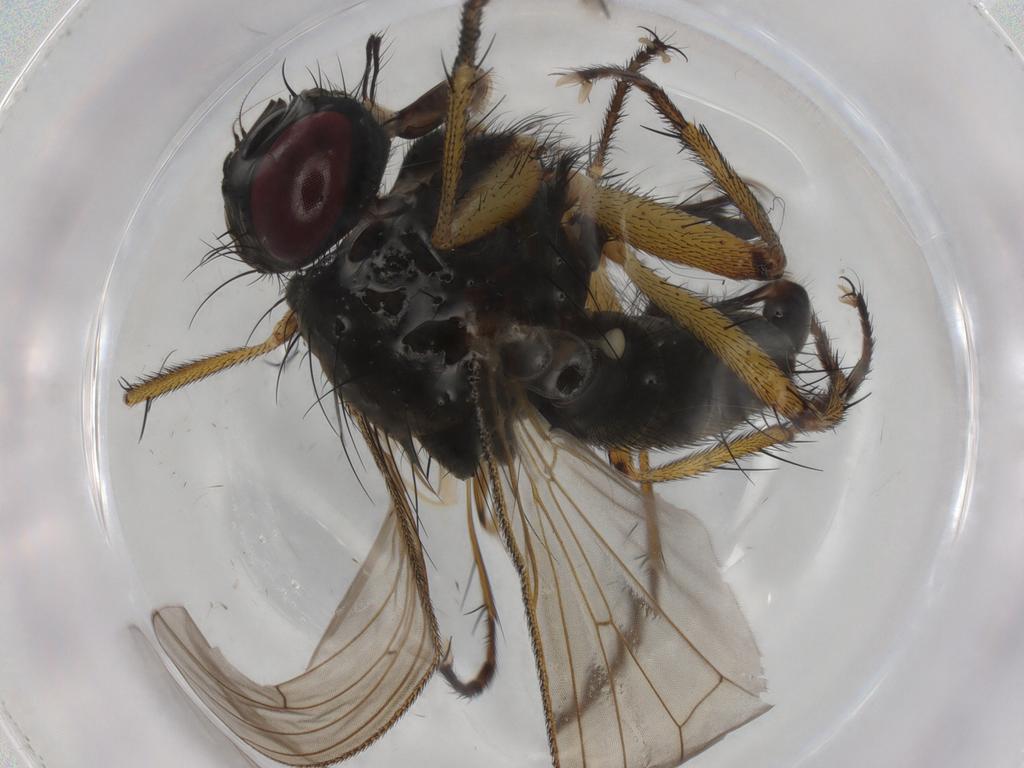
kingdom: Animalia
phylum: Arthropoda
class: Insecta
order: Diptera
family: Muscidae
